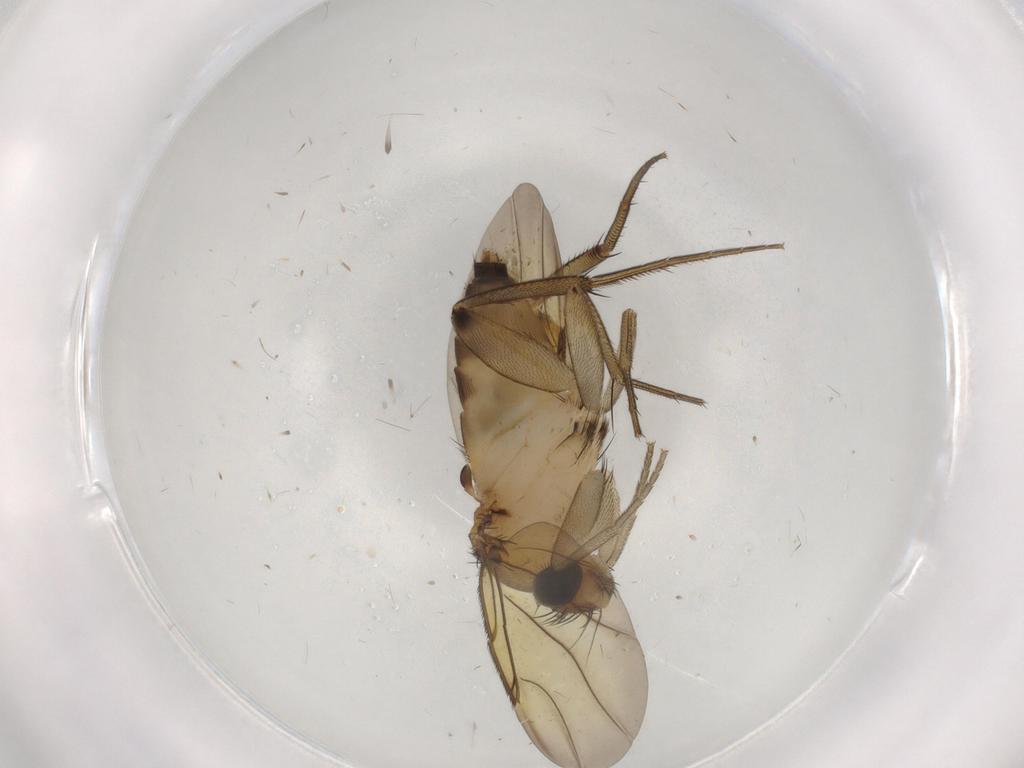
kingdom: Animalia
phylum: Arthropoda
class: Insecta
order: Diptera
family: Phoridae
